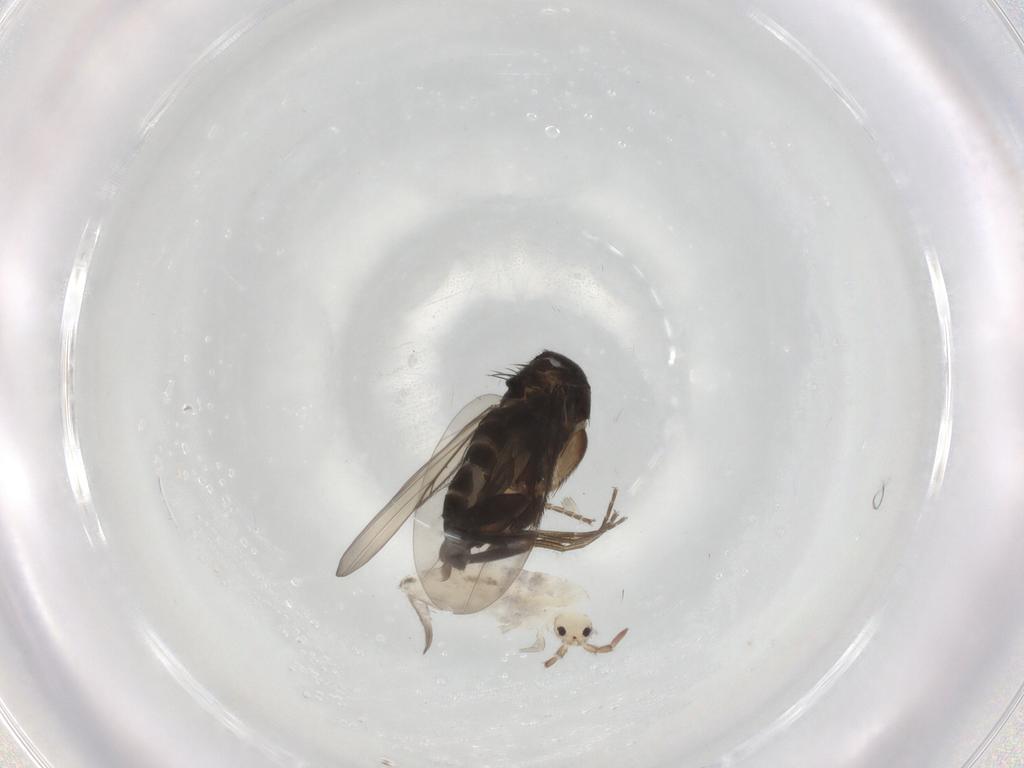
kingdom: Animalia
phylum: Arthropoda
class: Insecta
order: Diptera
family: Phoridae
